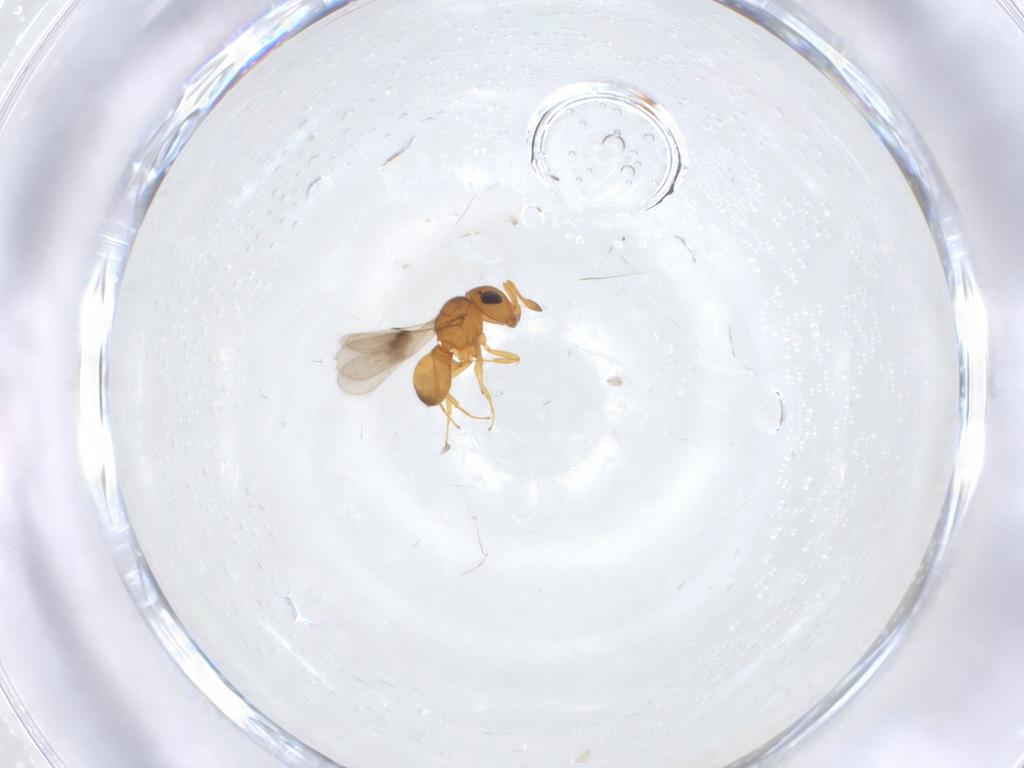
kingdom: Animalia
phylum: Arthropoda
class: Insecta
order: Hymenoptera
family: Scelionidae
